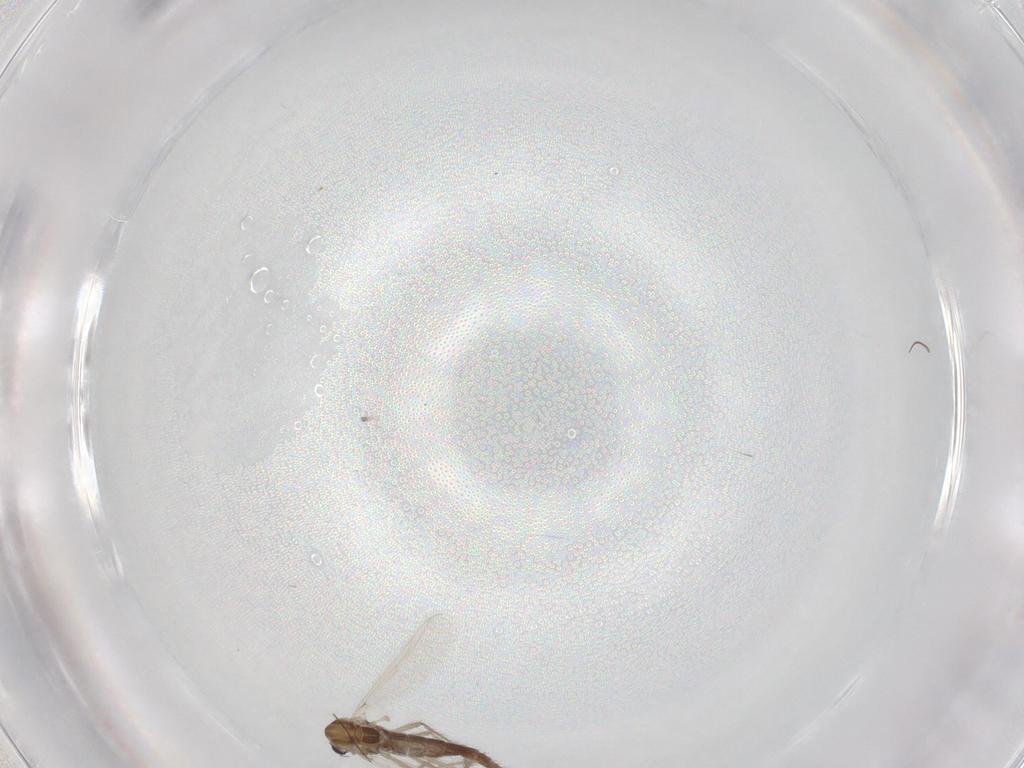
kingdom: Animalia
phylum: Arthropoda
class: Insecta
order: Diptera
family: Chironomidae
